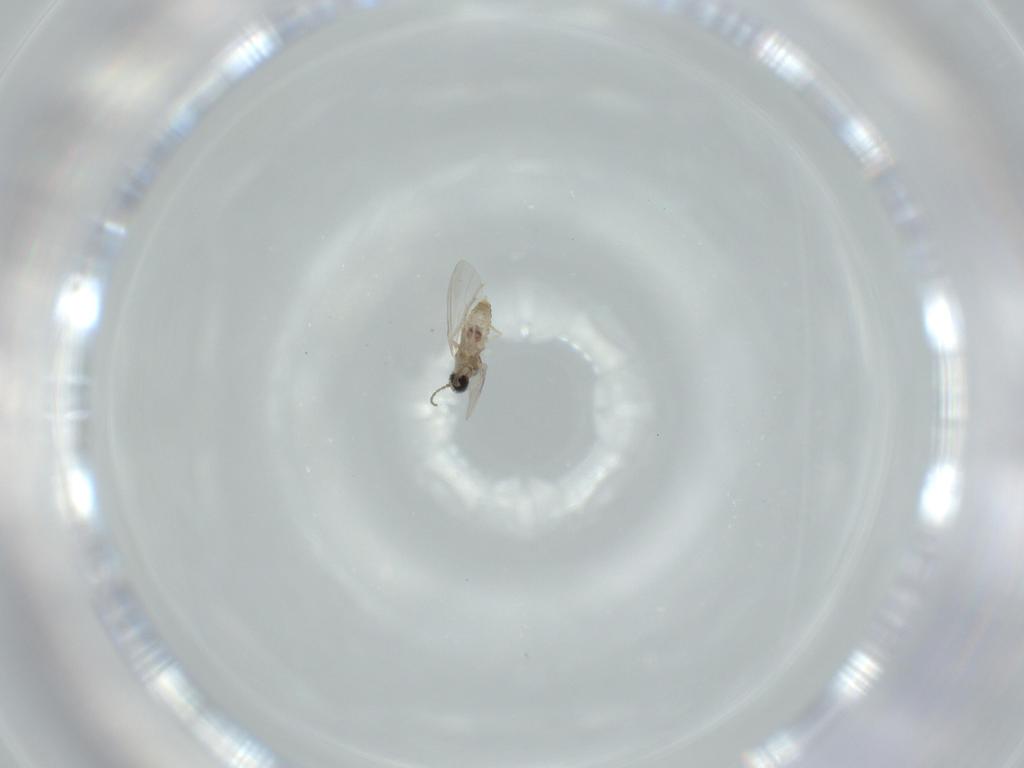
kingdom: Animalia
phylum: Arthropoda
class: Insecta
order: Diptera
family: Cecidomyiidae
